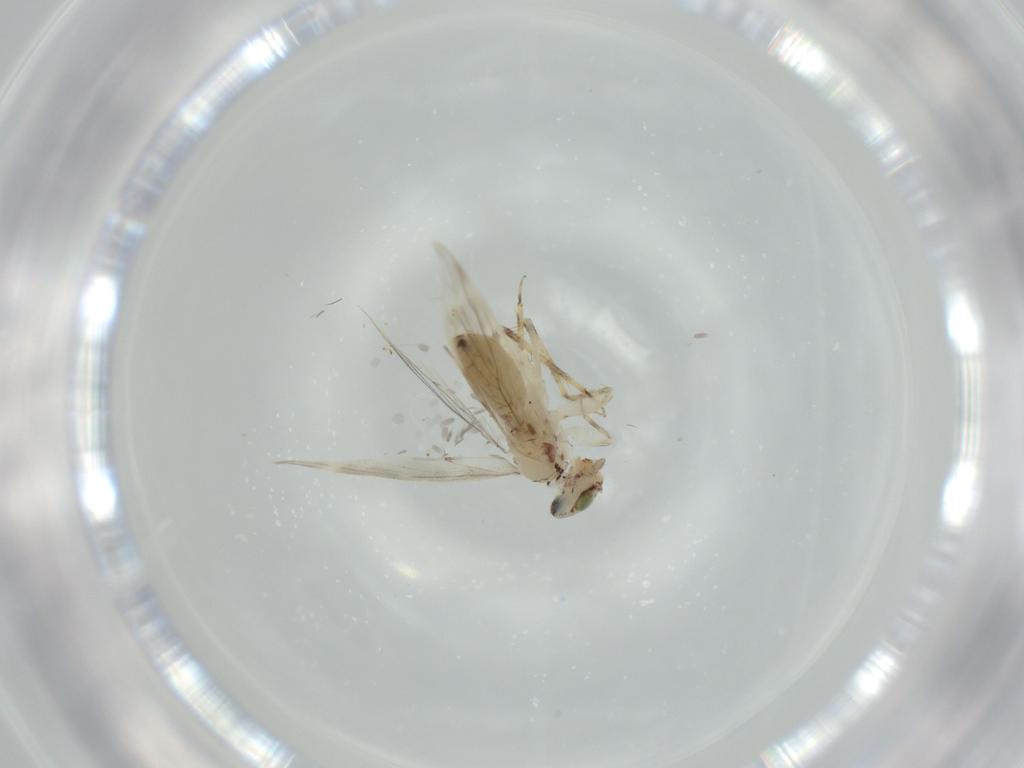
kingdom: Animalia
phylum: Arthropoda
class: Insecta
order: Psocodea
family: Lepidopsocidae
